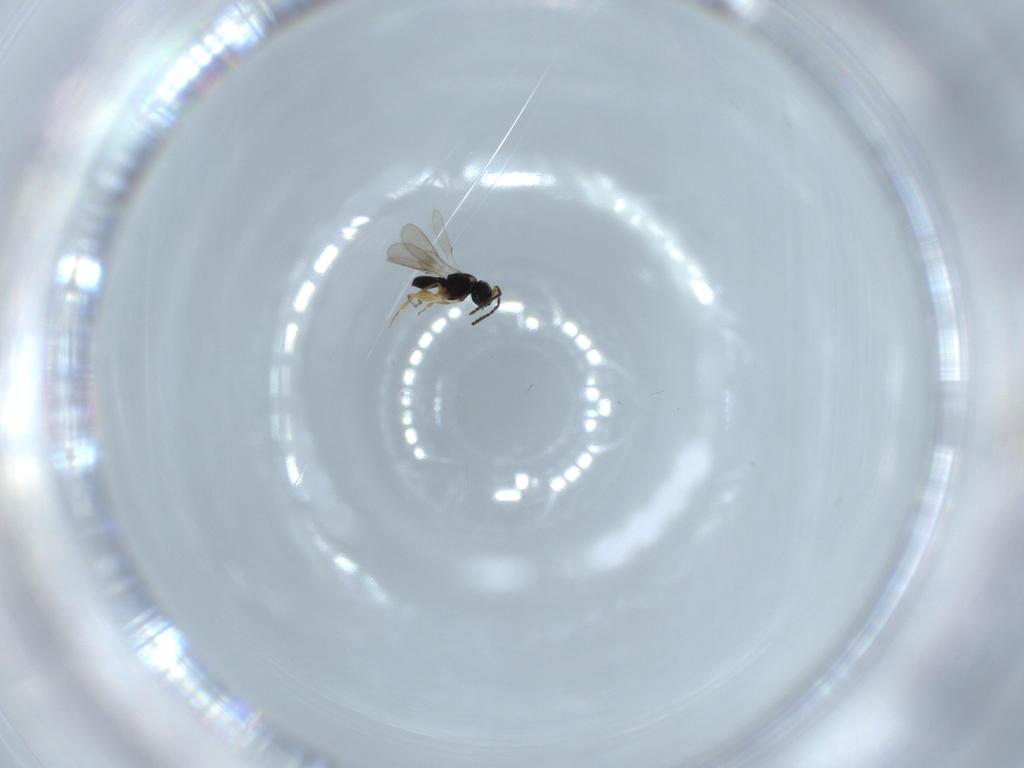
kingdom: Animalia
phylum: Arthropoda
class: Insecta
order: Hymenoptera
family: Scelionidae
